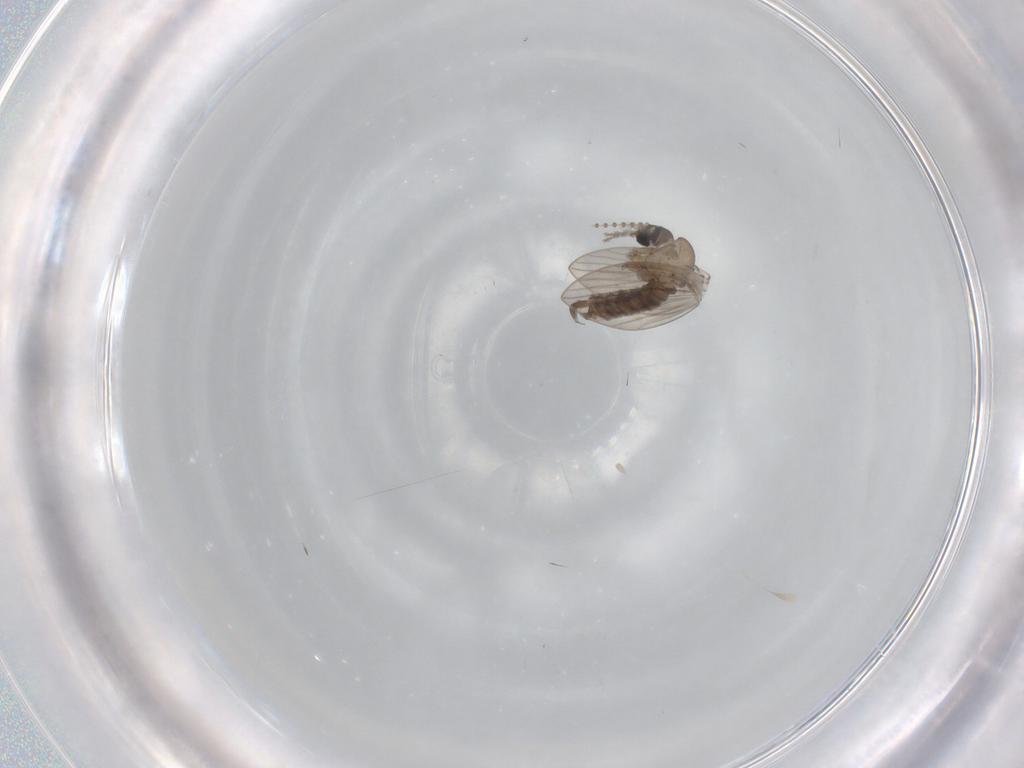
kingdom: Animalia
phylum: Arthropoda
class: Insecta
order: Diptera
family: Psychodidae
